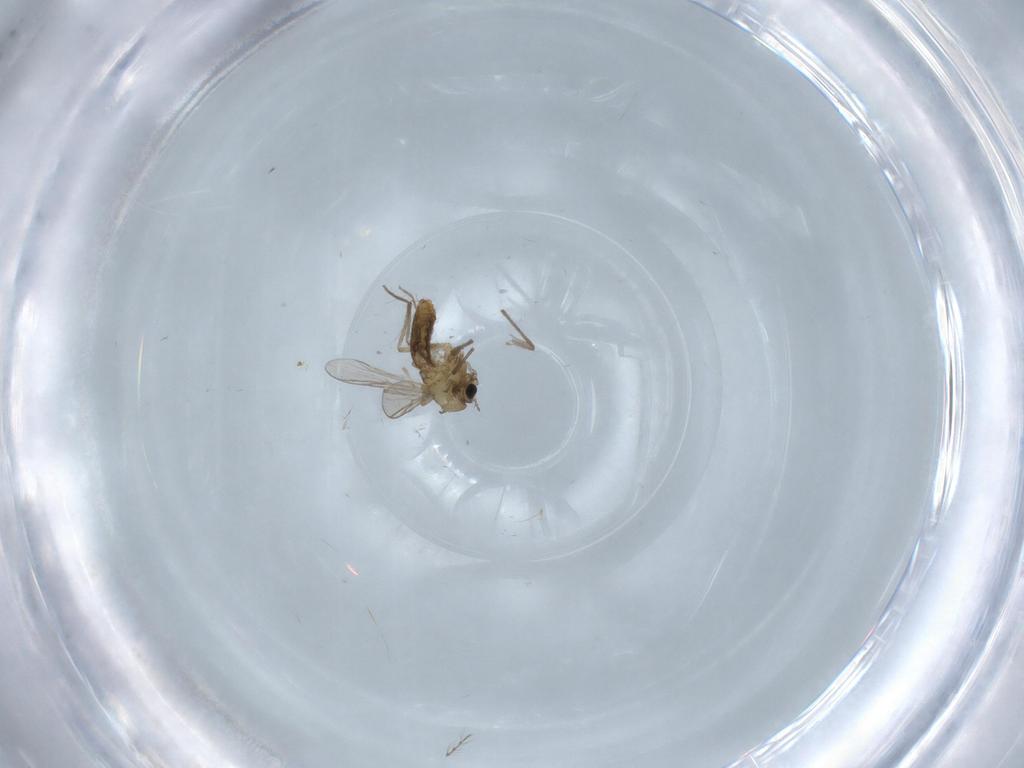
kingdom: Animalia
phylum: Arthropoda
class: Insecta
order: Diptera
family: Chironomidae
